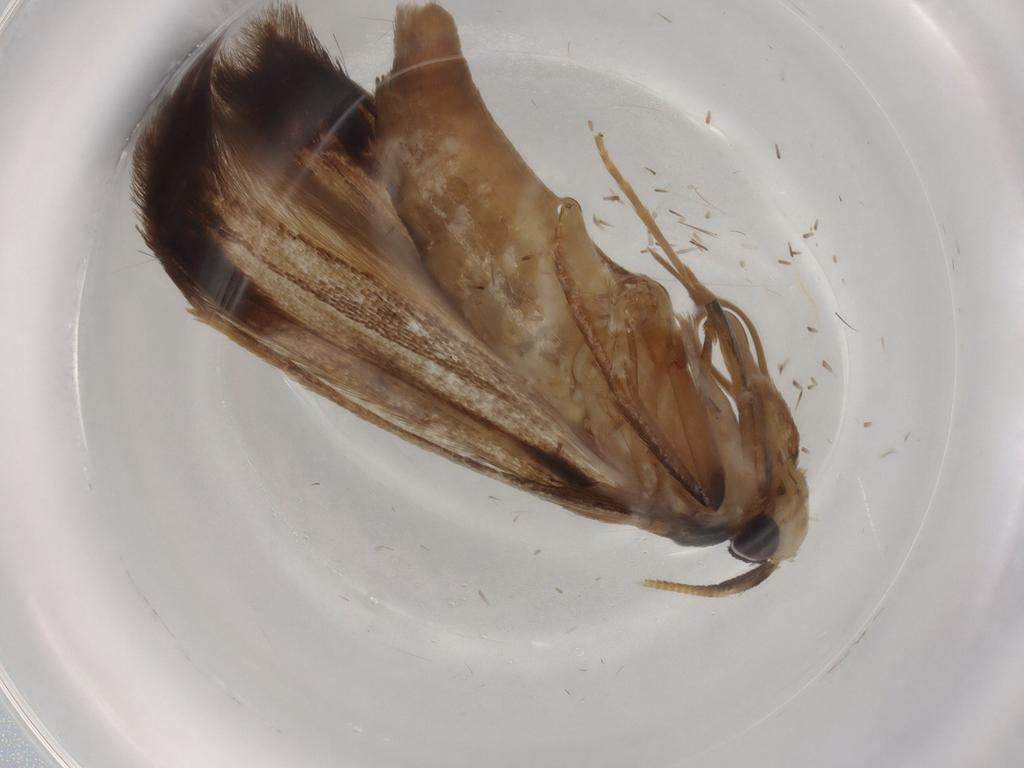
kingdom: Animalia
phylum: Arthropoda
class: Insecta
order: Lepidoptera
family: Tineidae
